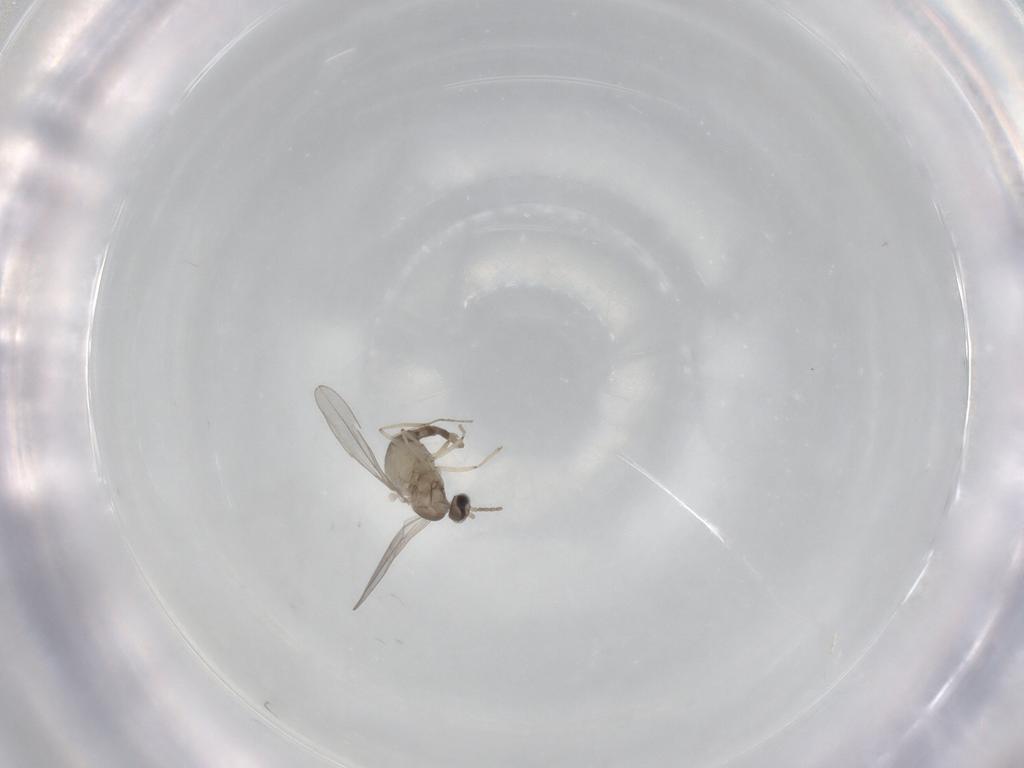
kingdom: Animalia
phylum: Arthropoda
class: Insecta
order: Diptera
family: Cecidomyiidae
